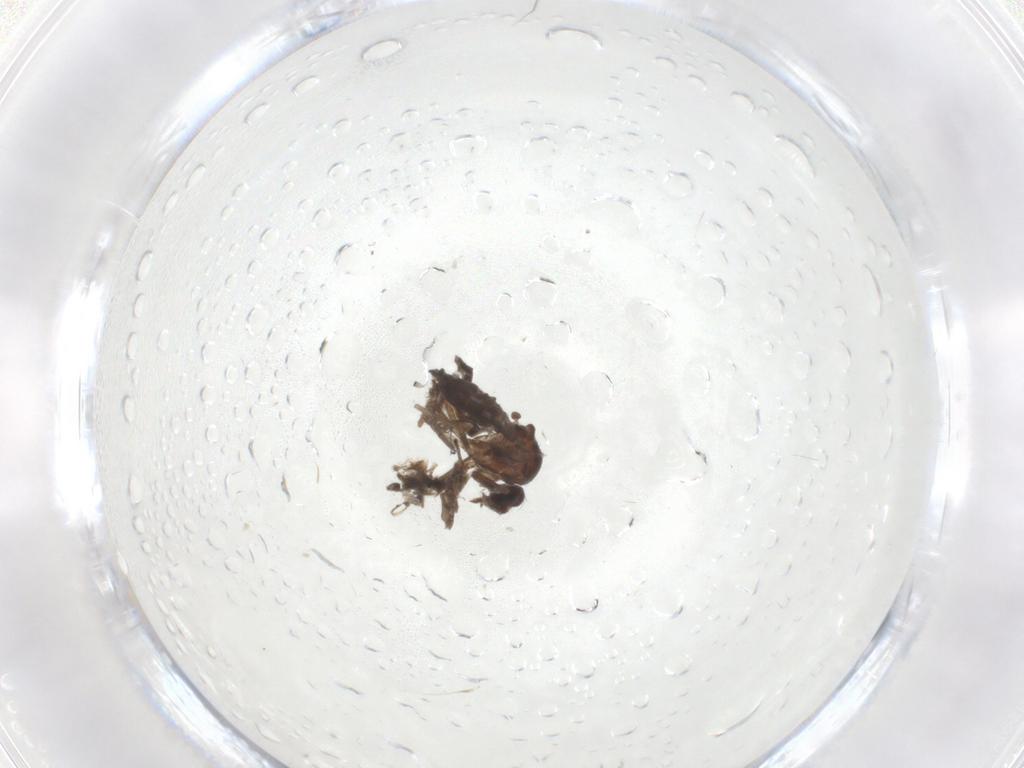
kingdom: Animalia
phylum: Arthropoda
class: Insecta
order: Diptera
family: Ceratopogonidae
